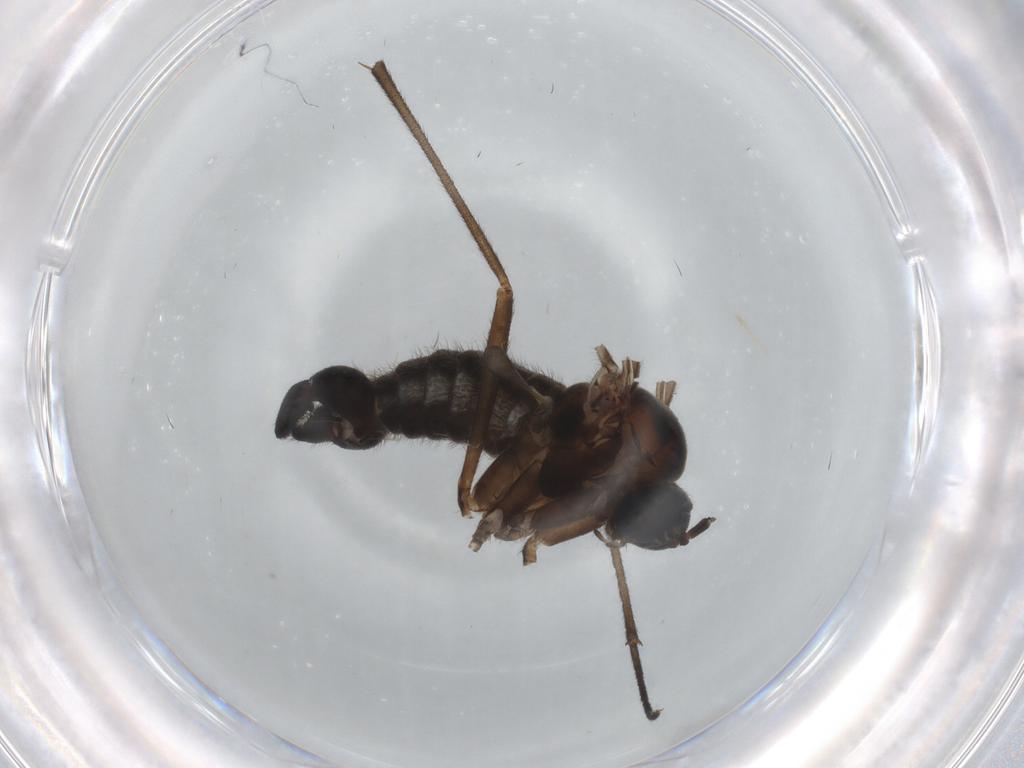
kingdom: Animalia
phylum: Arthropoda
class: Insecta
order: Diptera
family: Sciaridae
